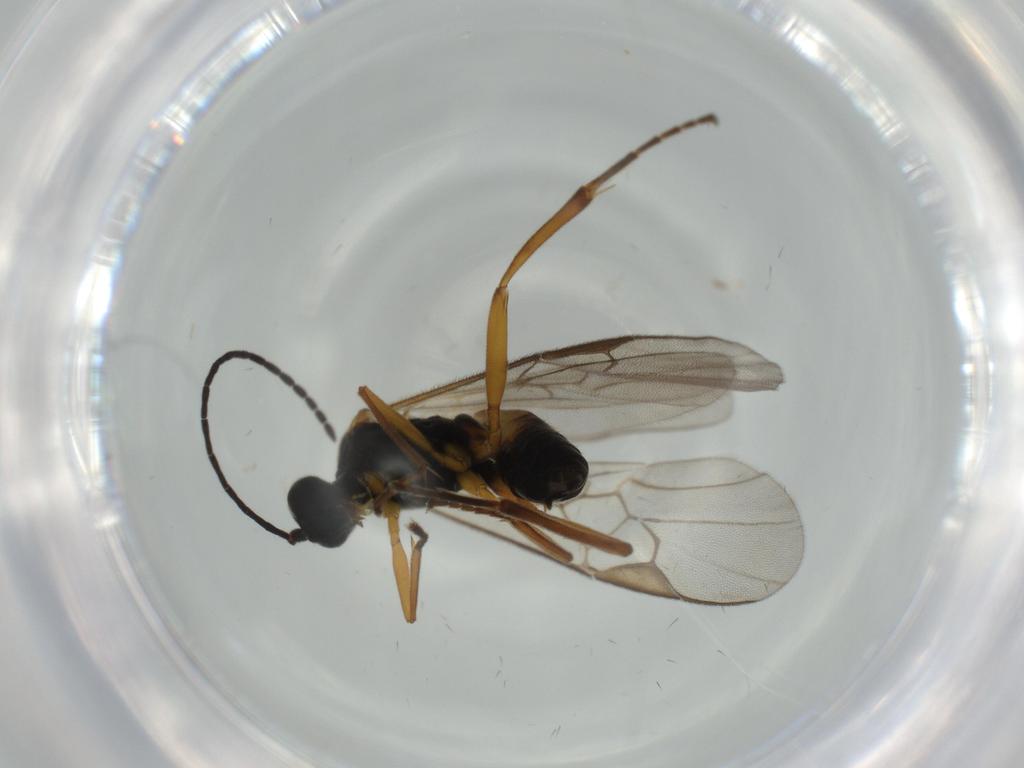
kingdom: Animalia
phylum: Arthropoda
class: Insecta
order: Hymenoptera
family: Braconidae
